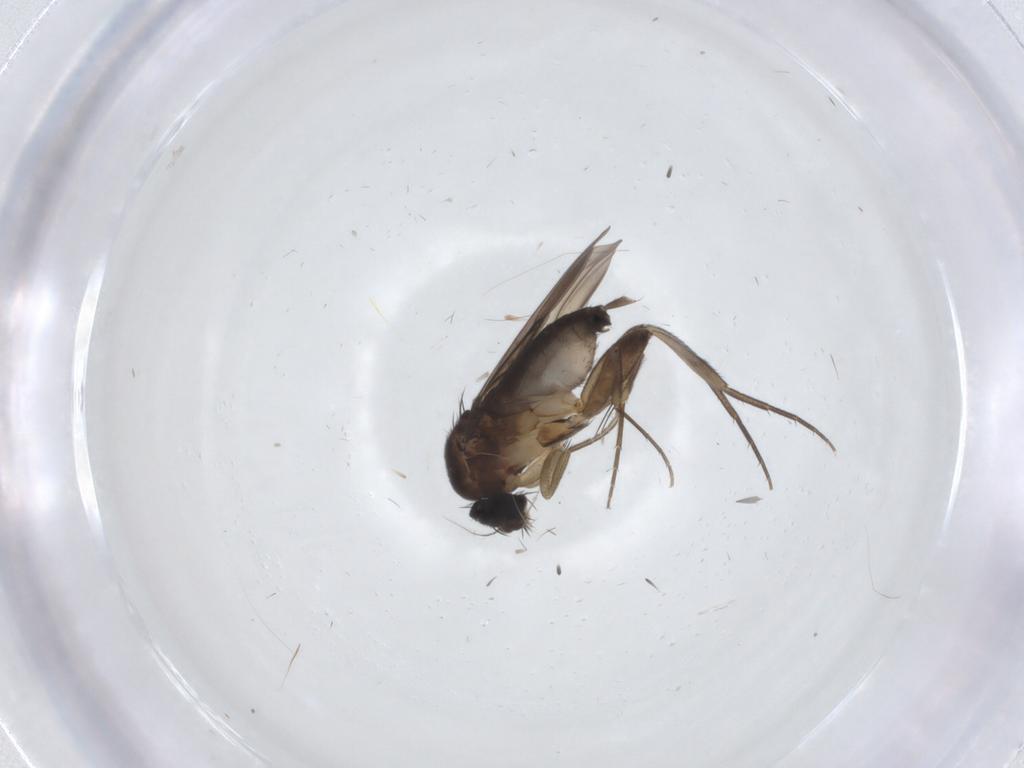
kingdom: Animalia
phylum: Arthropoda
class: Insecta
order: Diptera
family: Phoridae
